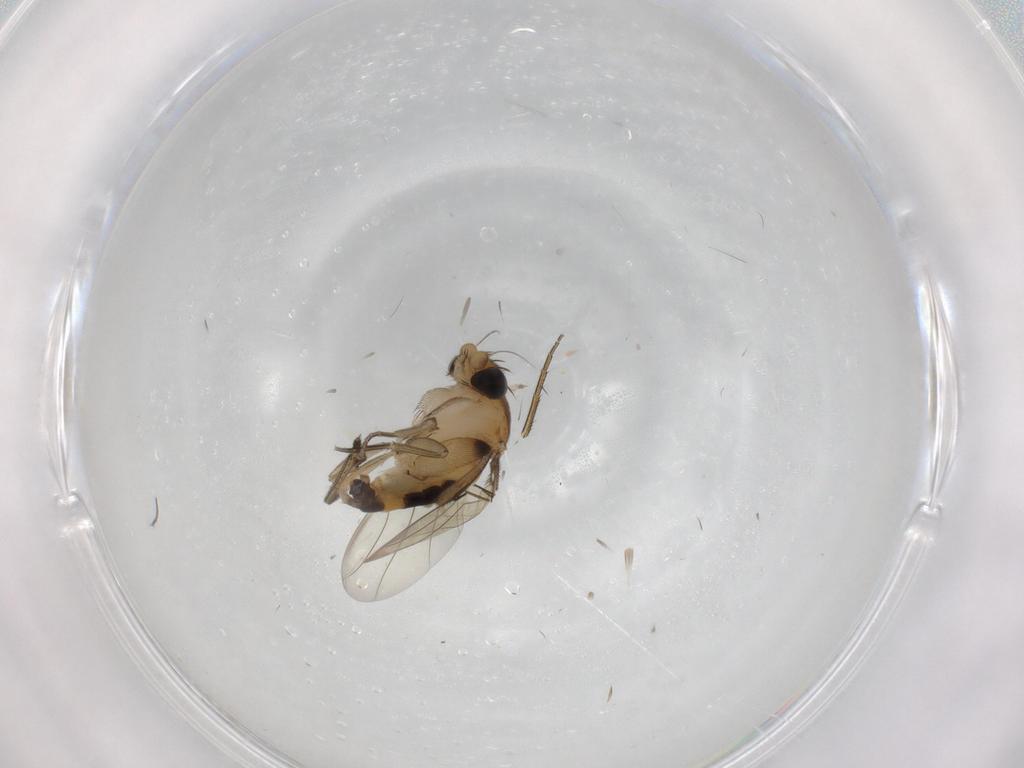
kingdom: Animalia
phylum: Arthropoda
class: Insecta
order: Diptera
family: Phoridae
